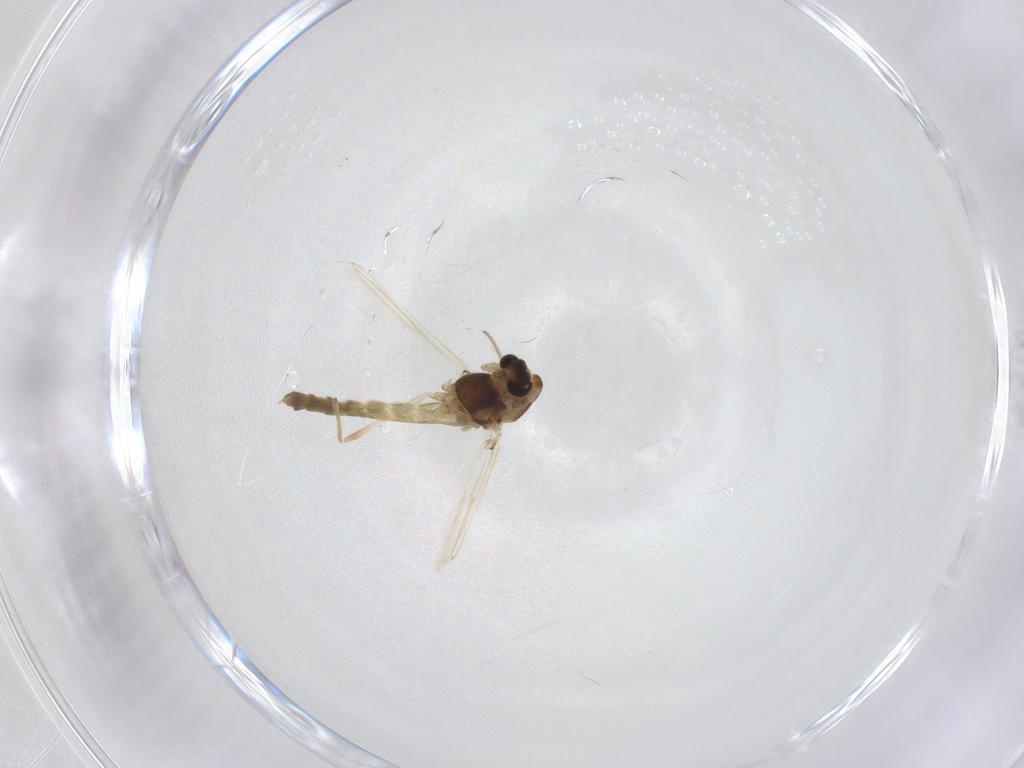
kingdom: Animalia
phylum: Arthropoda
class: Insecta
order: Diptera
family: Chironomidae
